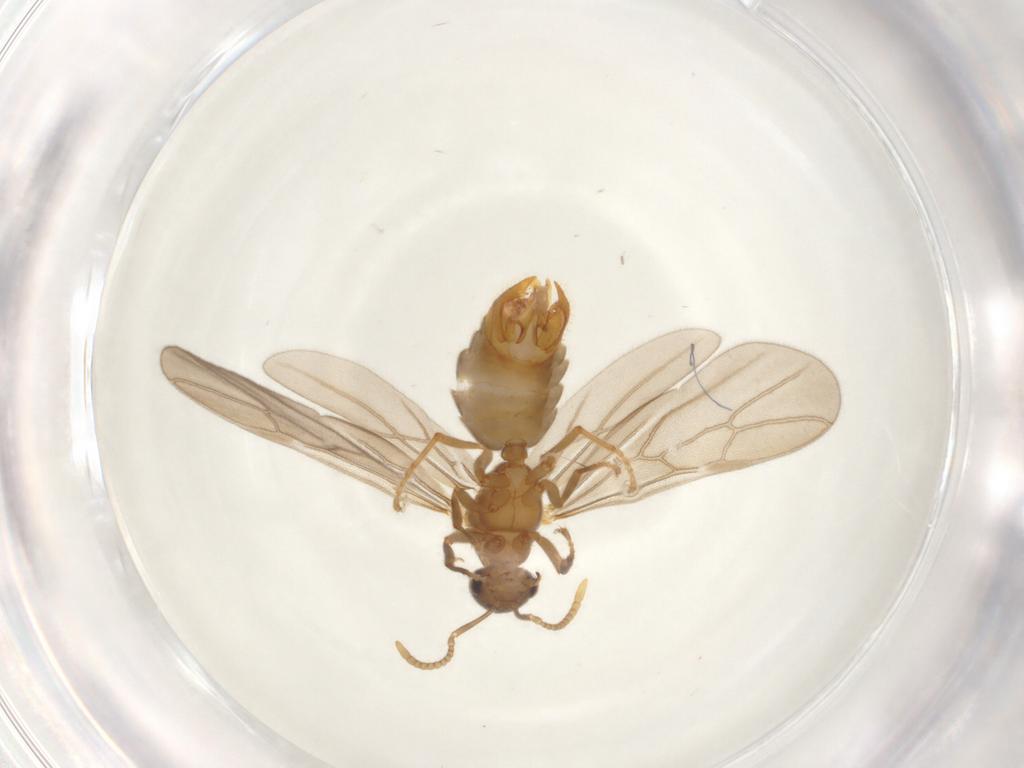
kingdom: Animalia
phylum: Arthropoda
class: Insecta
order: Hymenoptera
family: Formicidae
